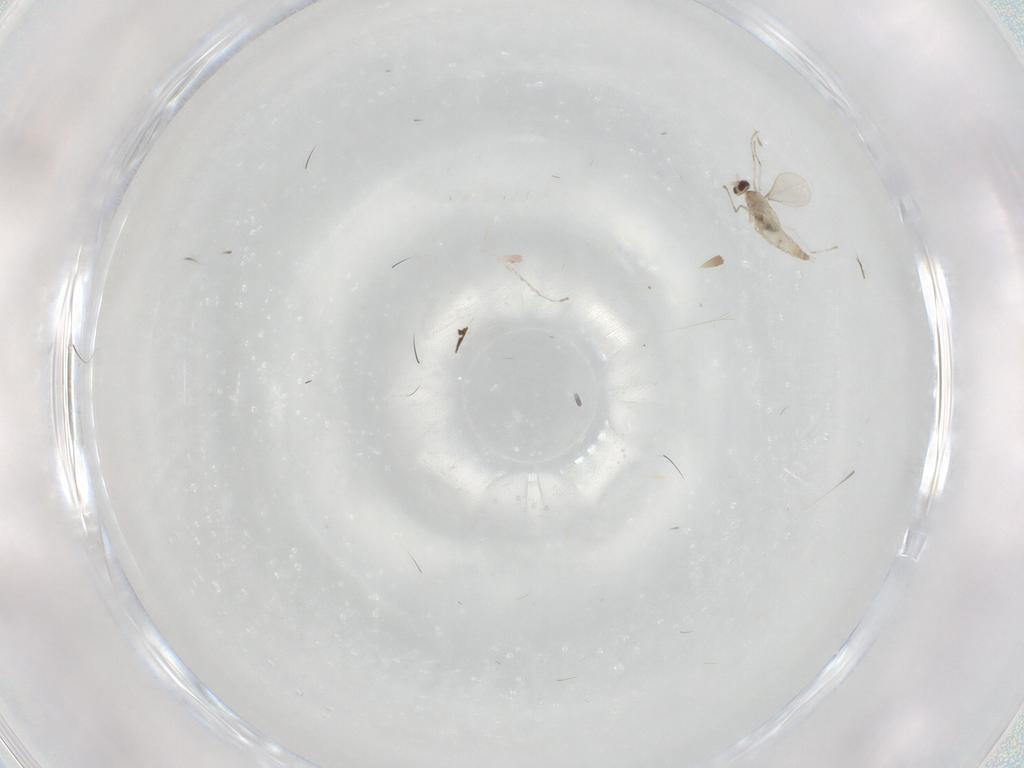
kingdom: Animalia
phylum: Arthropoda
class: Insecta
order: Diptera
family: Cecidomyiidae
